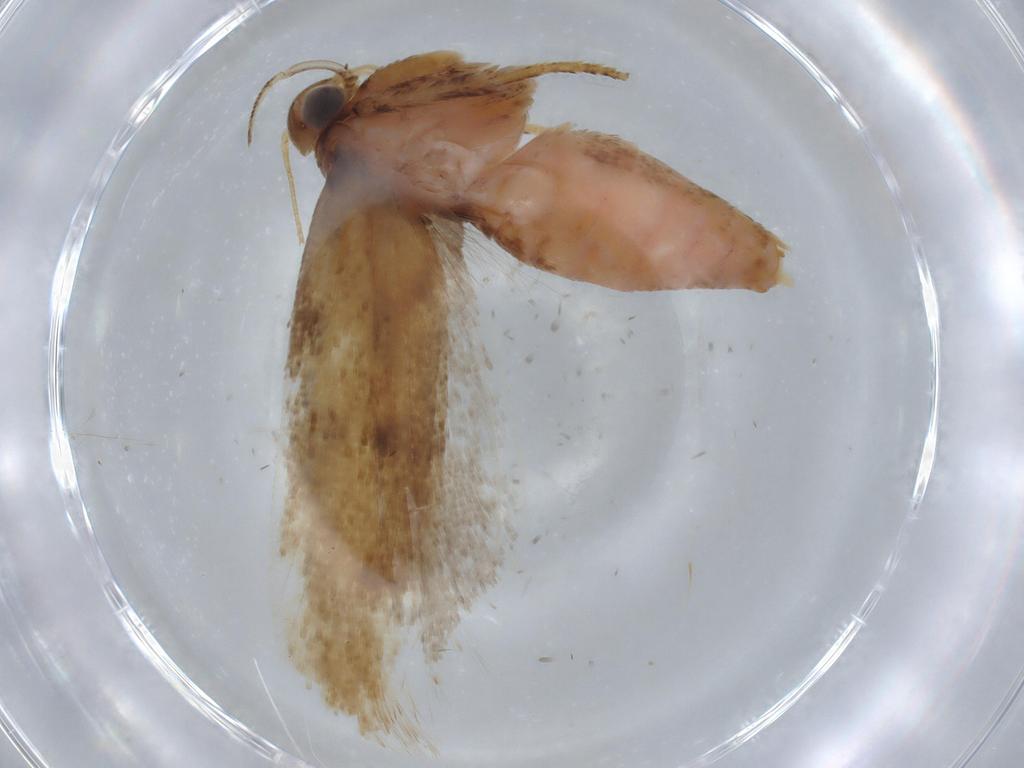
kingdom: Animalia
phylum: Arthropoda
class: Insecta
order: Lepidoptera
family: Gelechiidae
